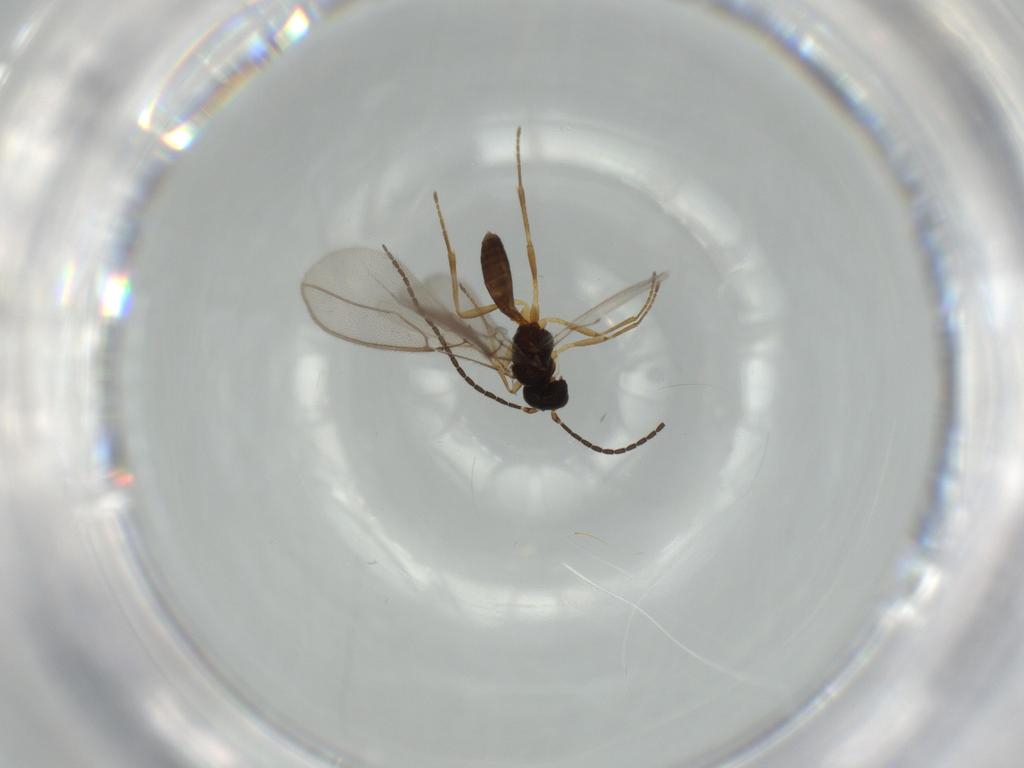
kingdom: Animalia
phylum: Arthropoda
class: Insecta
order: Hymenoptera
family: Braconidae
